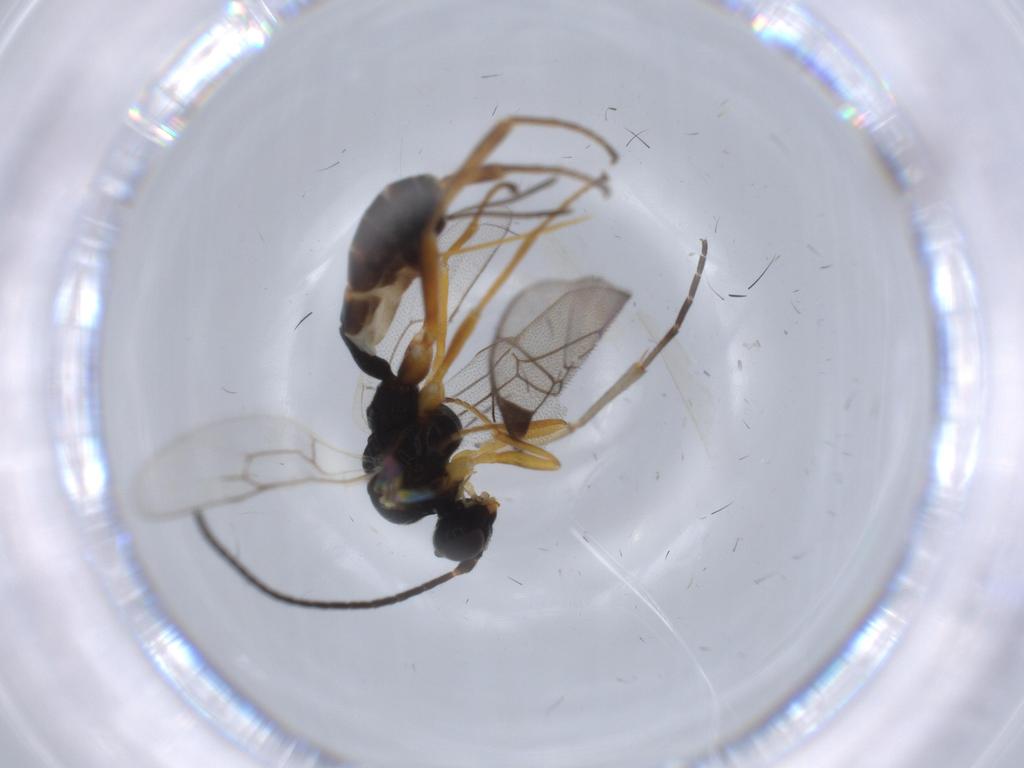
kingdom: Animalia
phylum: Arthropoda
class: Insecta
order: Hymenoptera
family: Ichneumonidae
